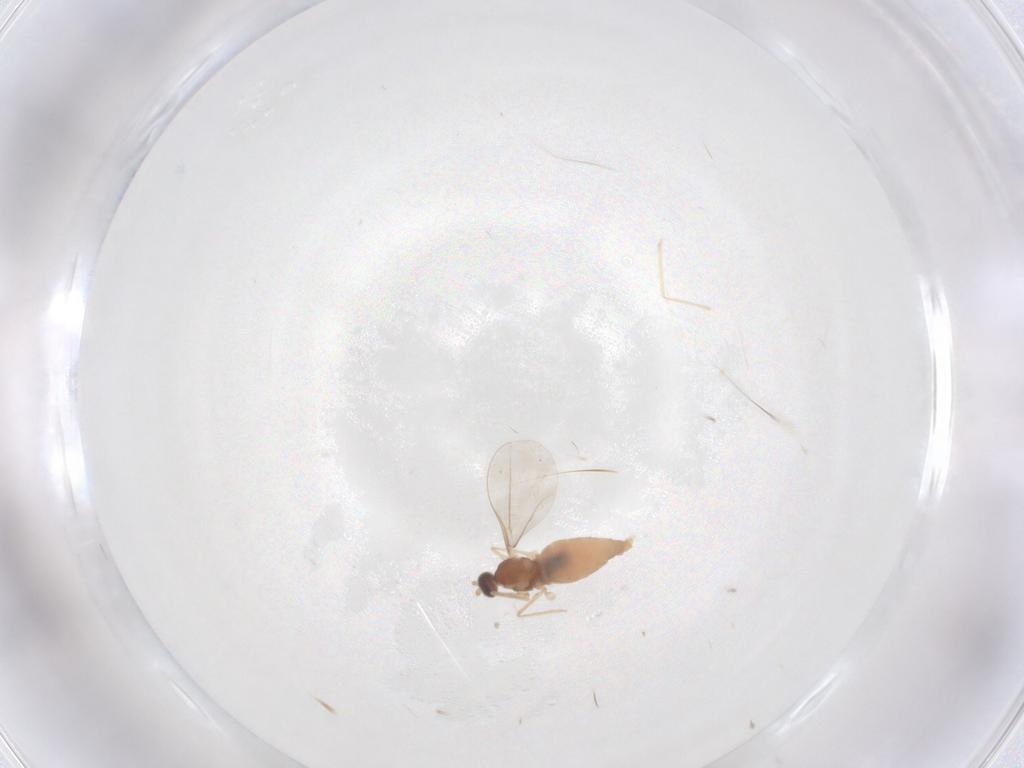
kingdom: Animalia
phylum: Arthropoda
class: Insecta
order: Diptera
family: Cecidomyiidae
